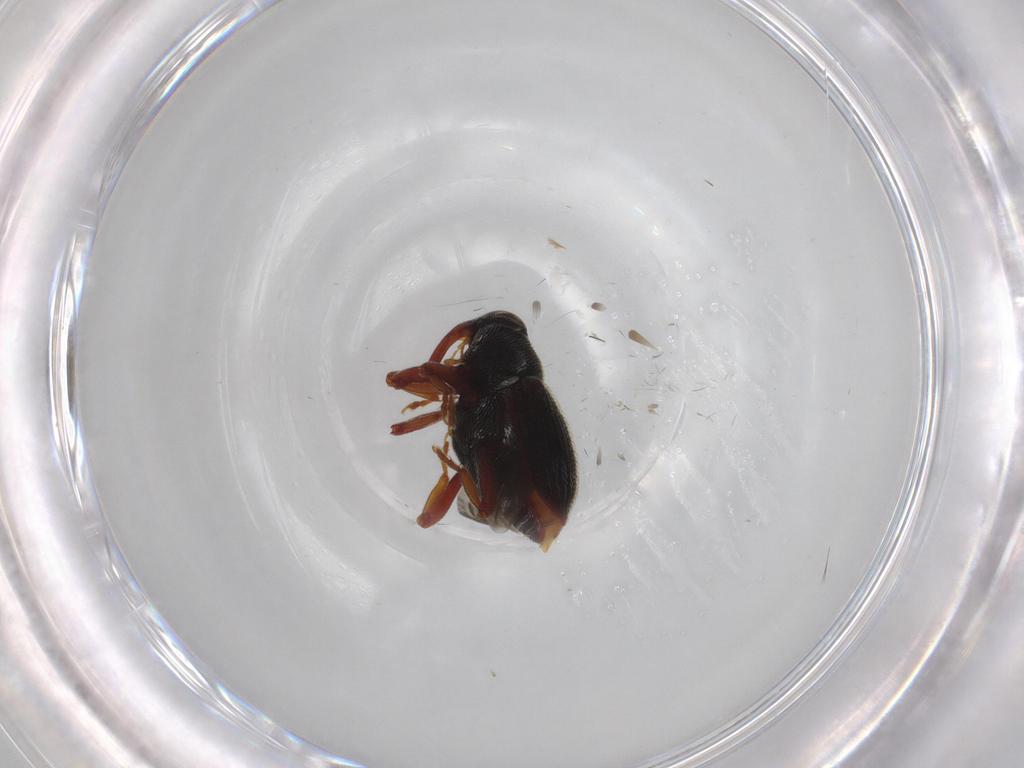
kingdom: Animalia
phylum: Arthropoda
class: Insecta
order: Coleoptera
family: Curculionidae
